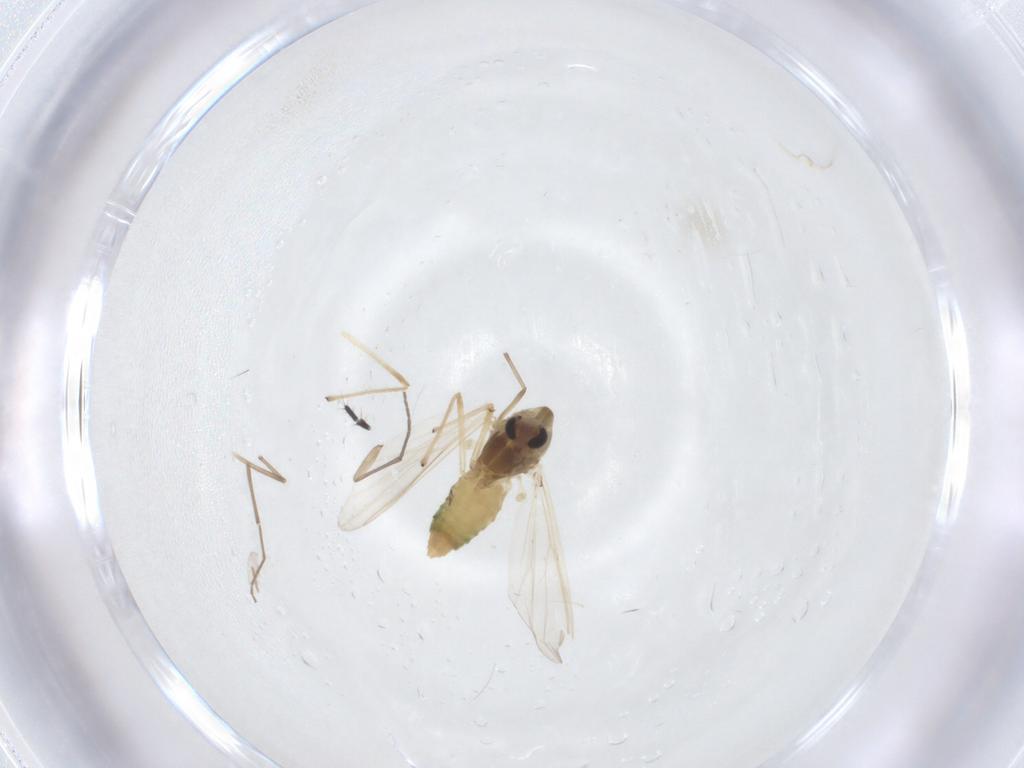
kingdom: Animalia
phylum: Arthropoda
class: Insecta
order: Diptera
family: Chironomidae
